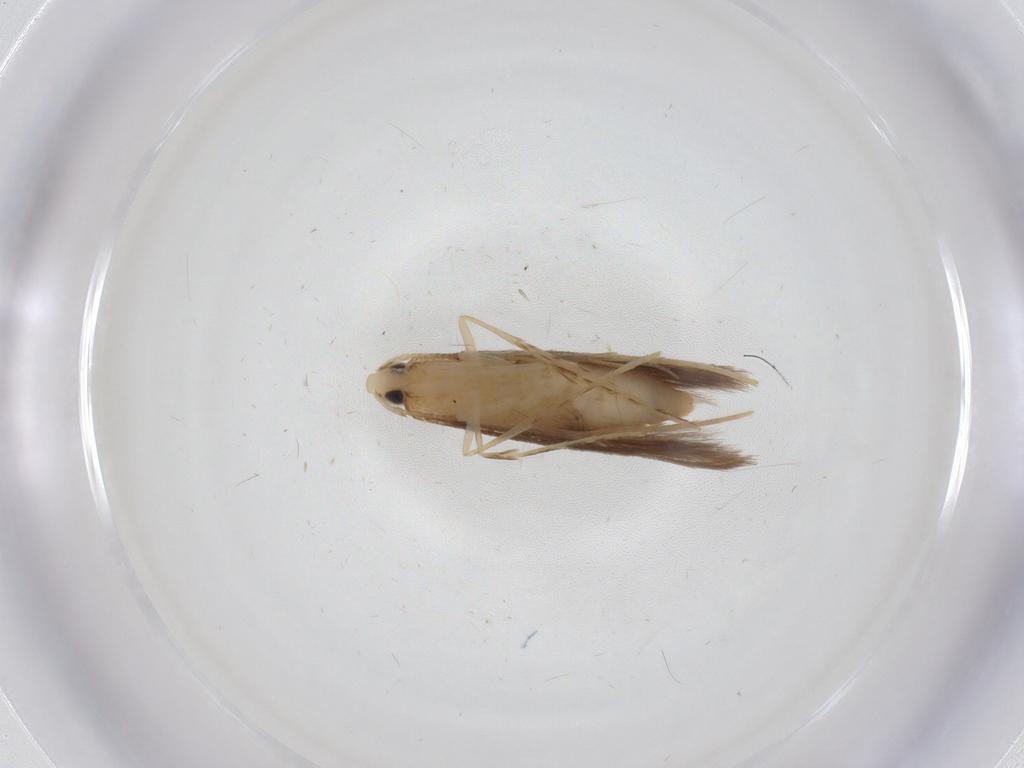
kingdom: Animalia
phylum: Arthropoda
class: Insecta
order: Lepidoptera
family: Psychidae
